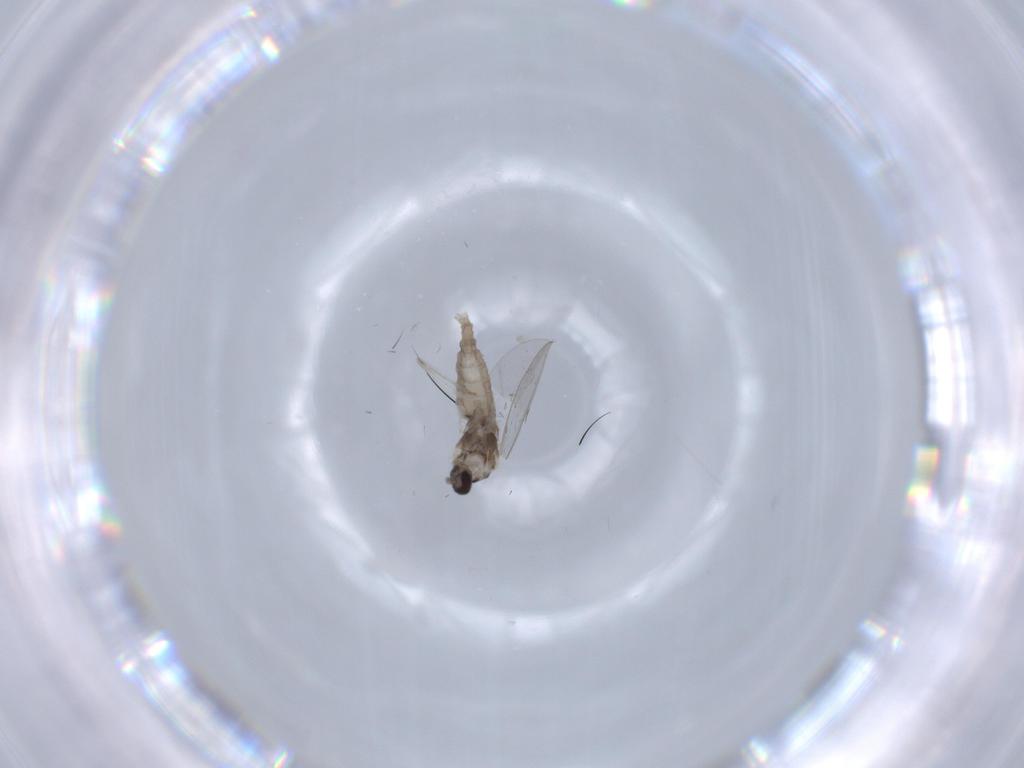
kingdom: Animalia
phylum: Arthropoda
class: Insecta
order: Diptera
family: Cecidomyiidae
